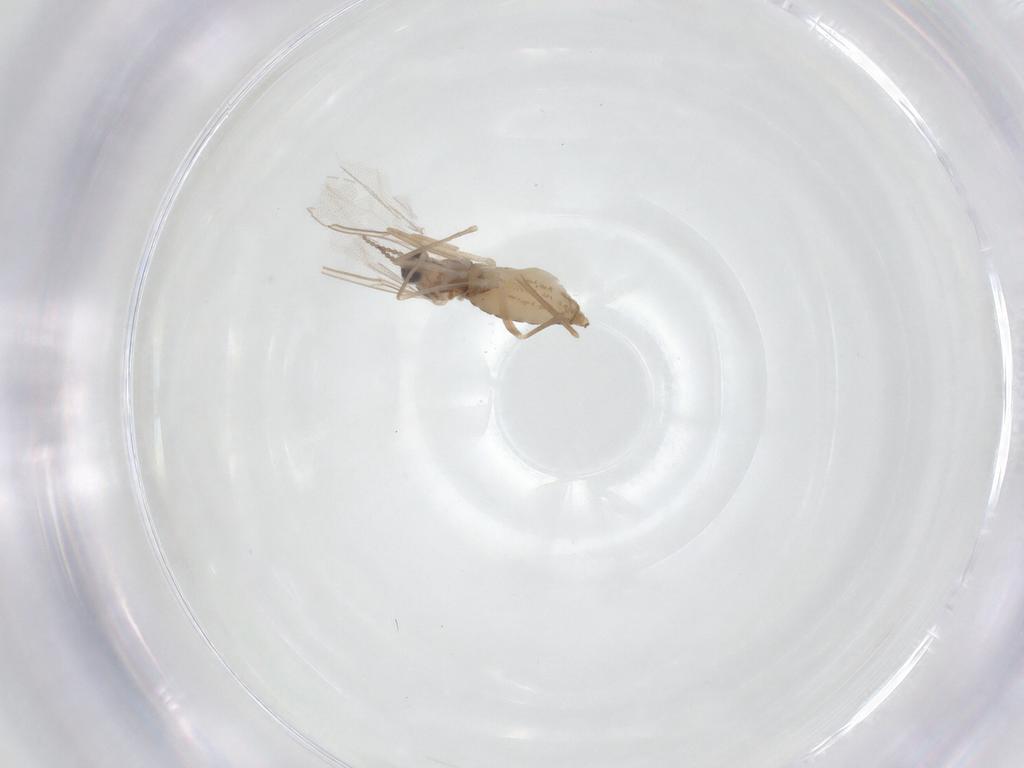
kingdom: Animalia
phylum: Arthropoda
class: Insecta
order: Diptera
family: Cecidomyiidae
